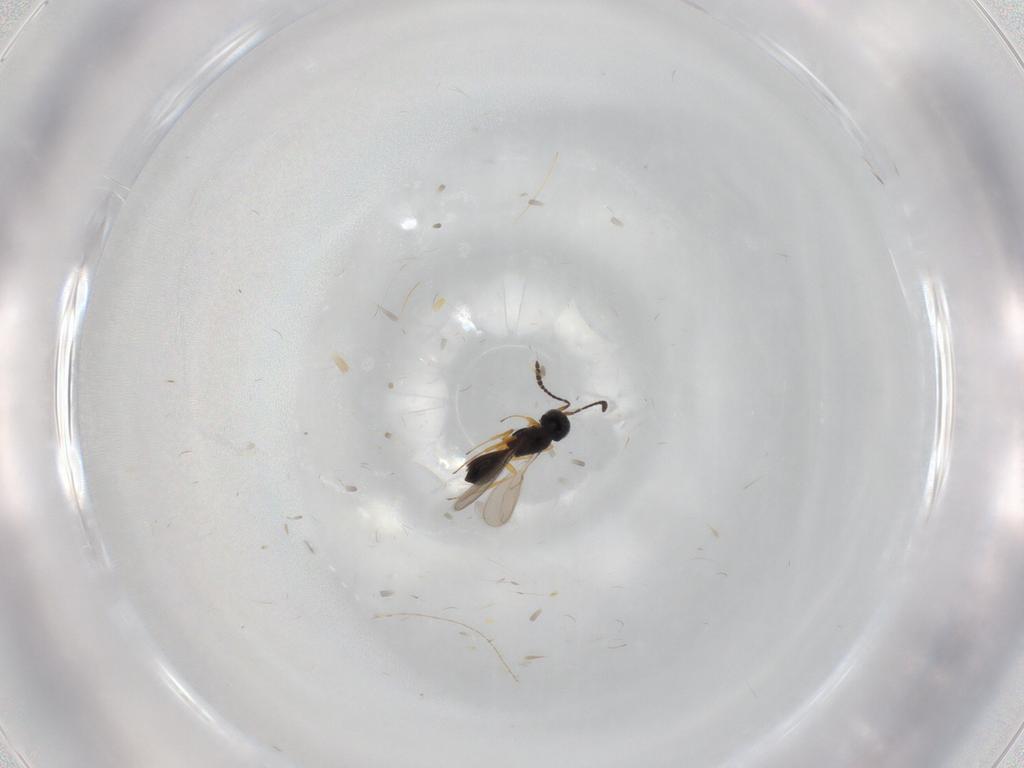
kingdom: Animalia
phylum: Arthropoda
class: Insecta
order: Hymenoptera
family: Scelionidae
